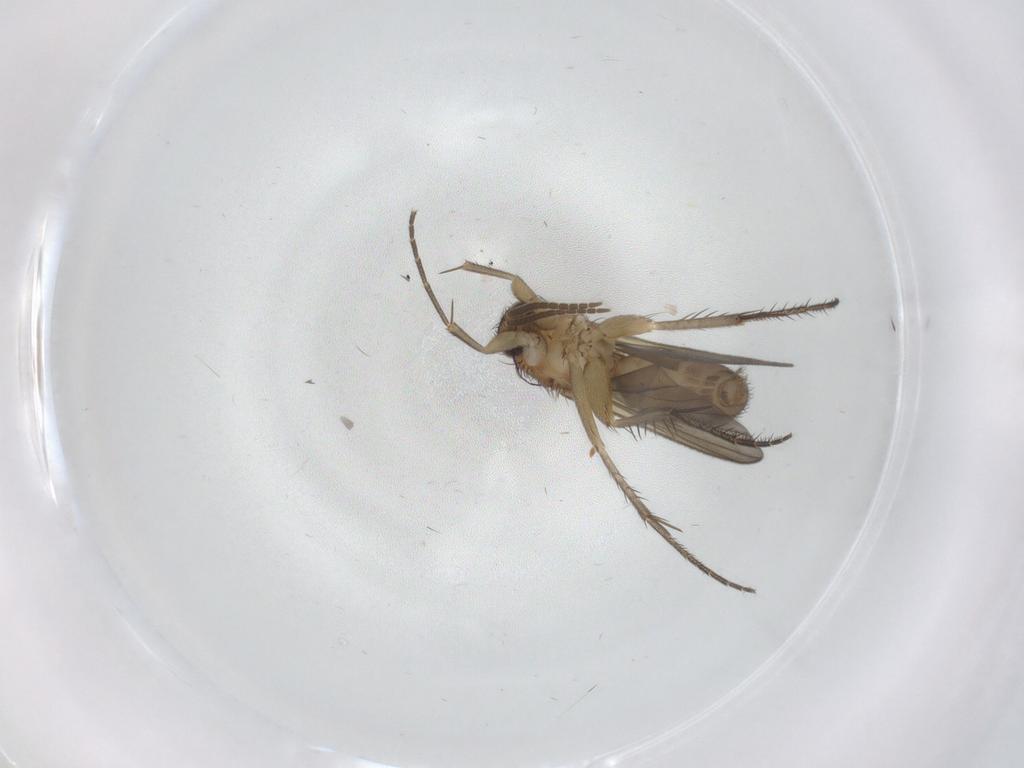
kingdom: Animalia
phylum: Arthropoda
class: Insecta
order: Diptera
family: Mycetophilidae
